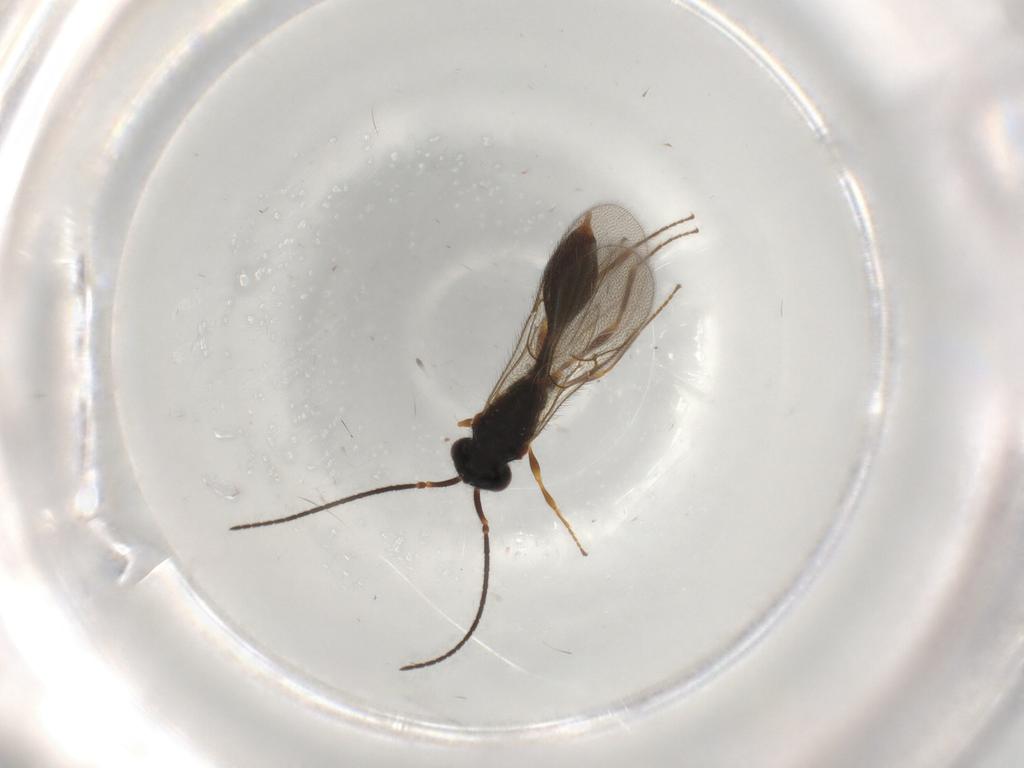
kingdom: Animalia
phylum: Arthropoda
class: Insecta
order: Hymenoptera
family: Diapriidae
